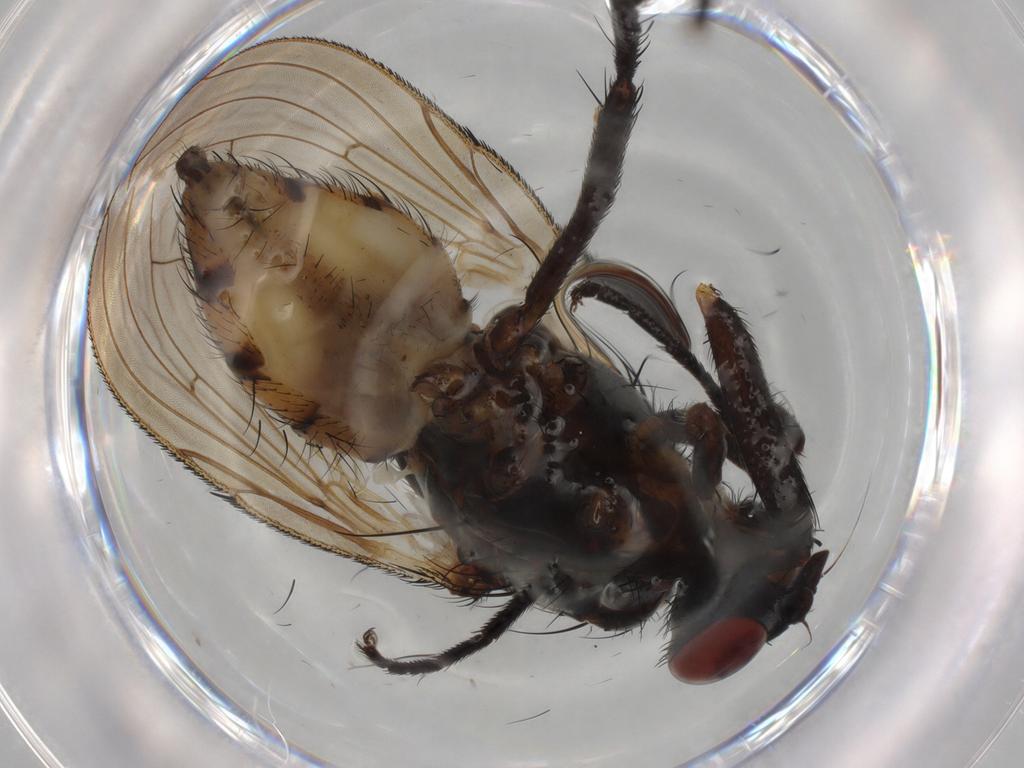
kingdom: Animalia
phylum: Arthropoda
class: Insecta
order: Diptera
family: Anthomyiidae
